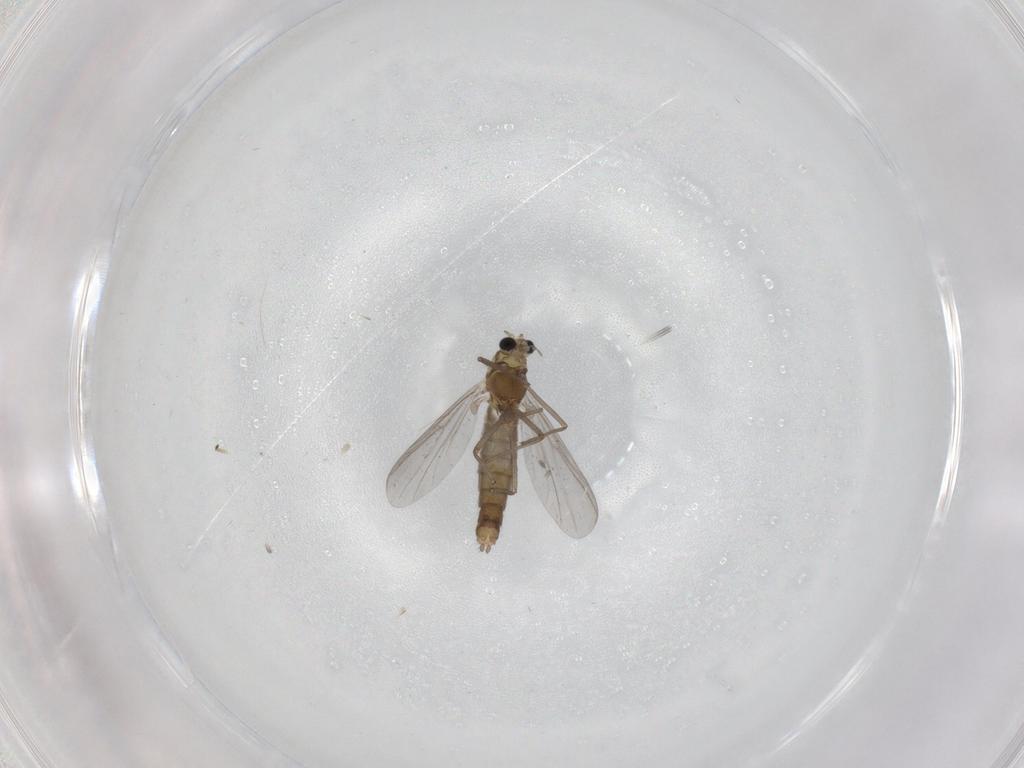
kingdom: Animalia
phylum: Arthropoda
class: Insecta
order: Diptera
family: Chironomidae
